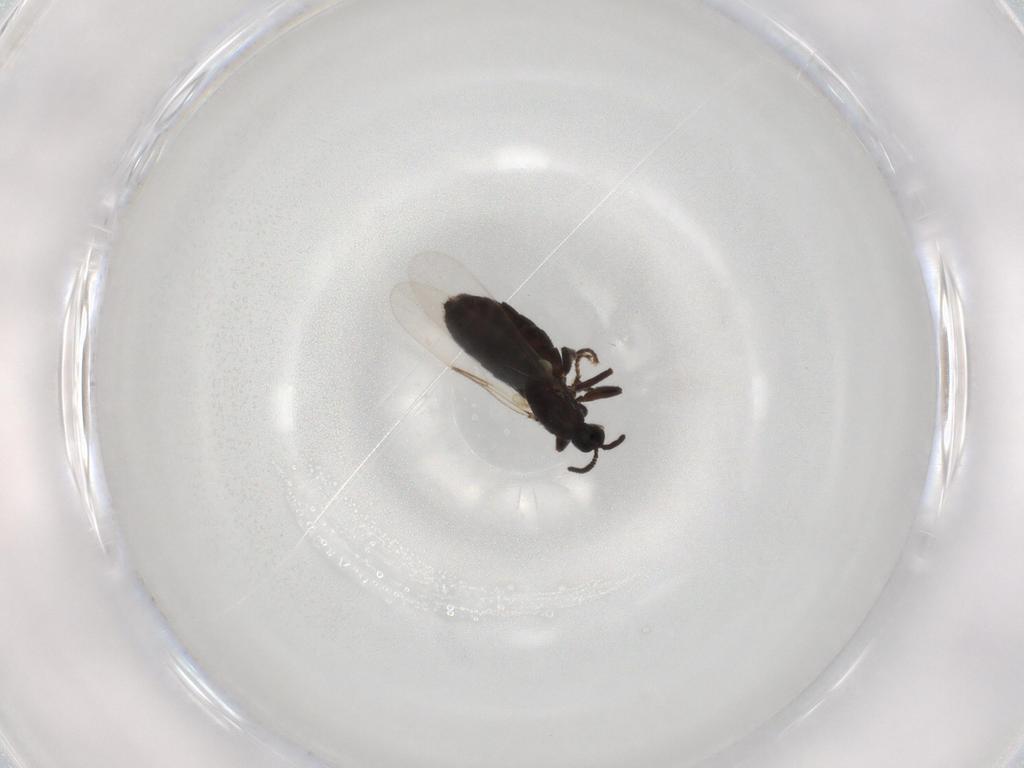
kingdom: Animalia
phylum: Arthropoda
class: Insecta
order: Diptera
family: Scatopsidae
